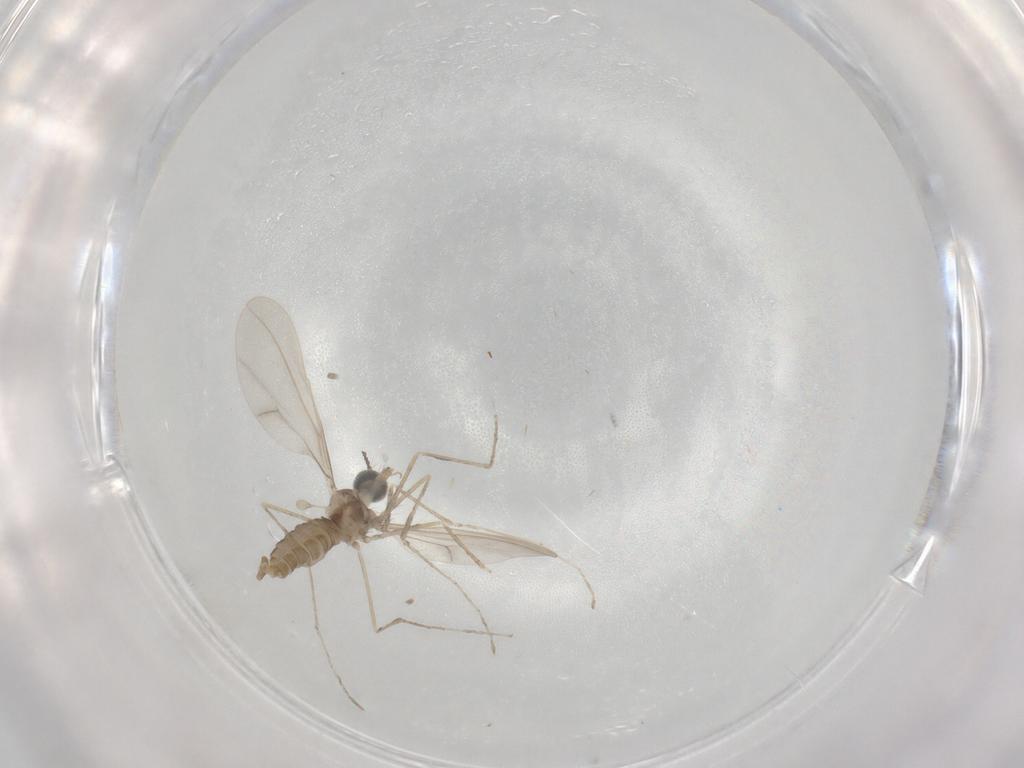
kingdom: Animalia
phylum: Arthropoda
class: Insecta
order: Diptera
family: Cecidomyiidae
